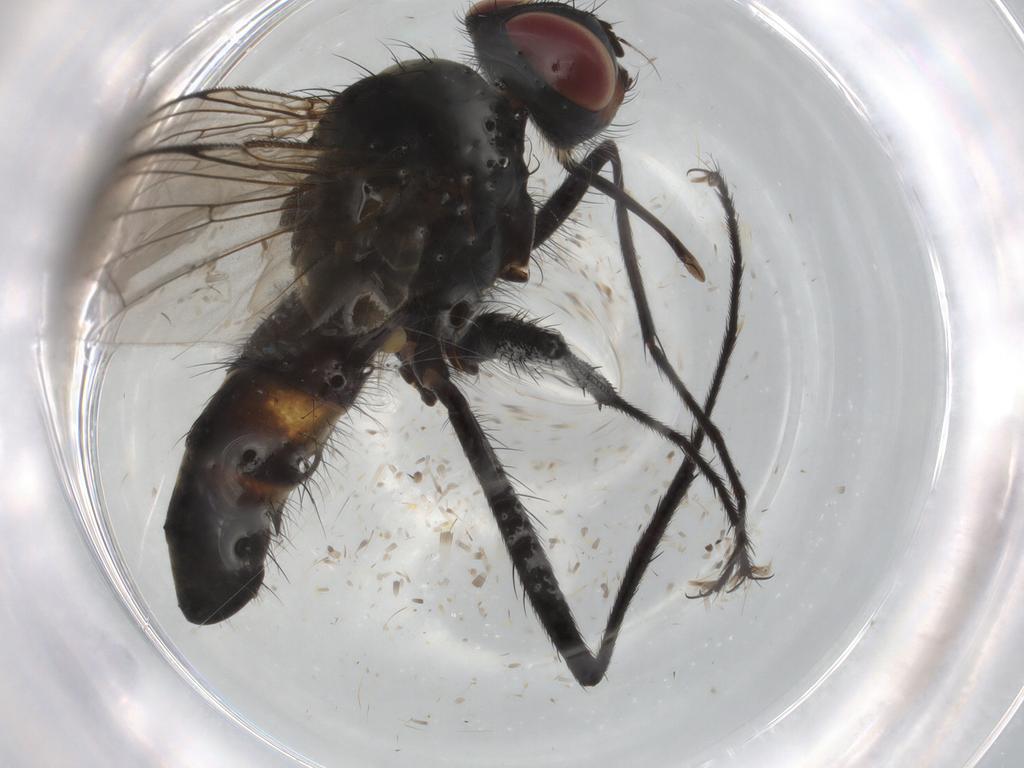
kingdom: Animalia
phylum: Arthropoda
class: Insecta
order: Diptera
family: Tachinidae
